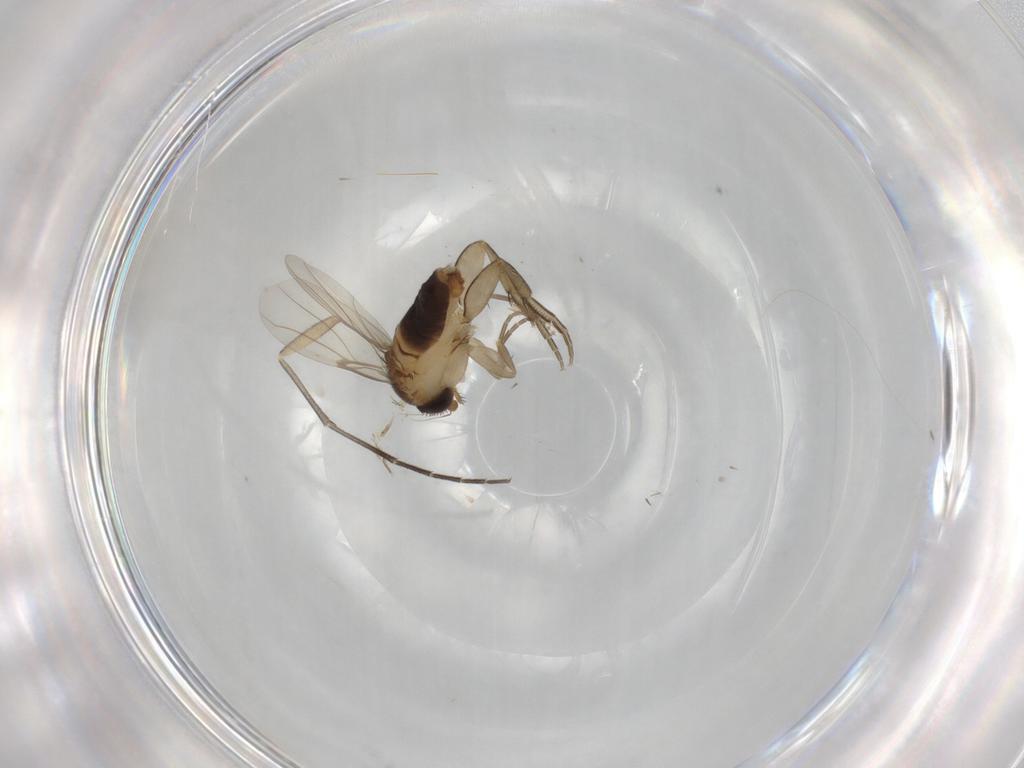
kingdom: Animalia
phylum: Arthropoda
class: Insecta
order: Diptera
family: Phoridae
